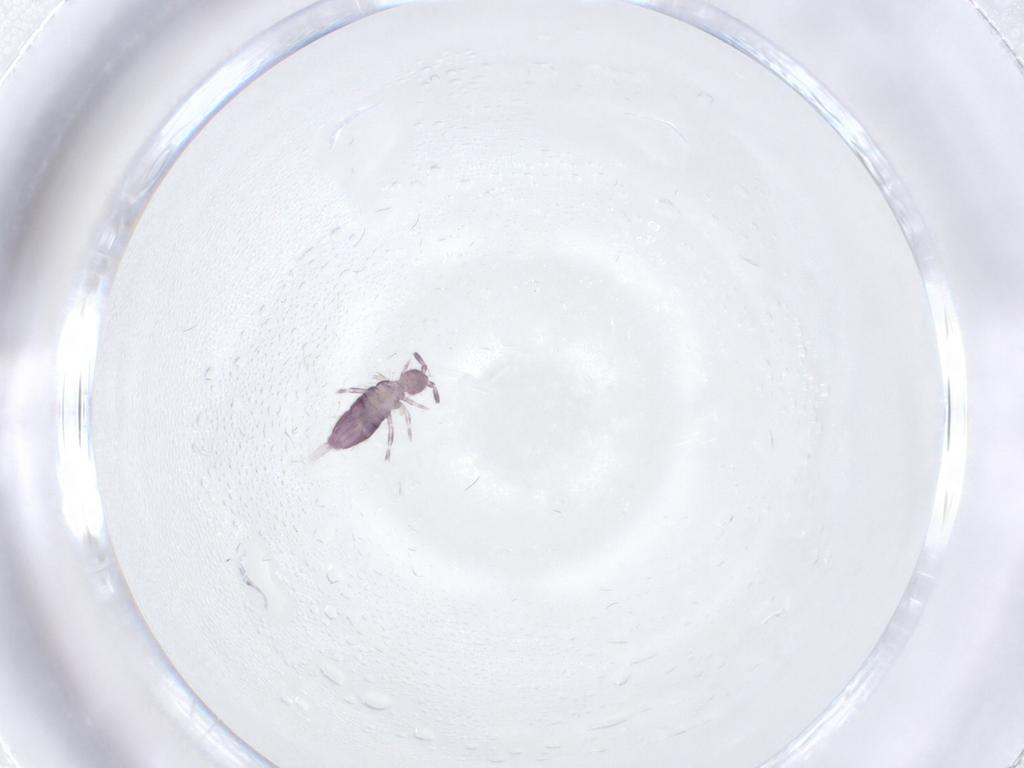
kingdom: Animalia
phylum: Arthropoda
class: Collembola
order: Entomobryomorpha
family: Entomobryidae
